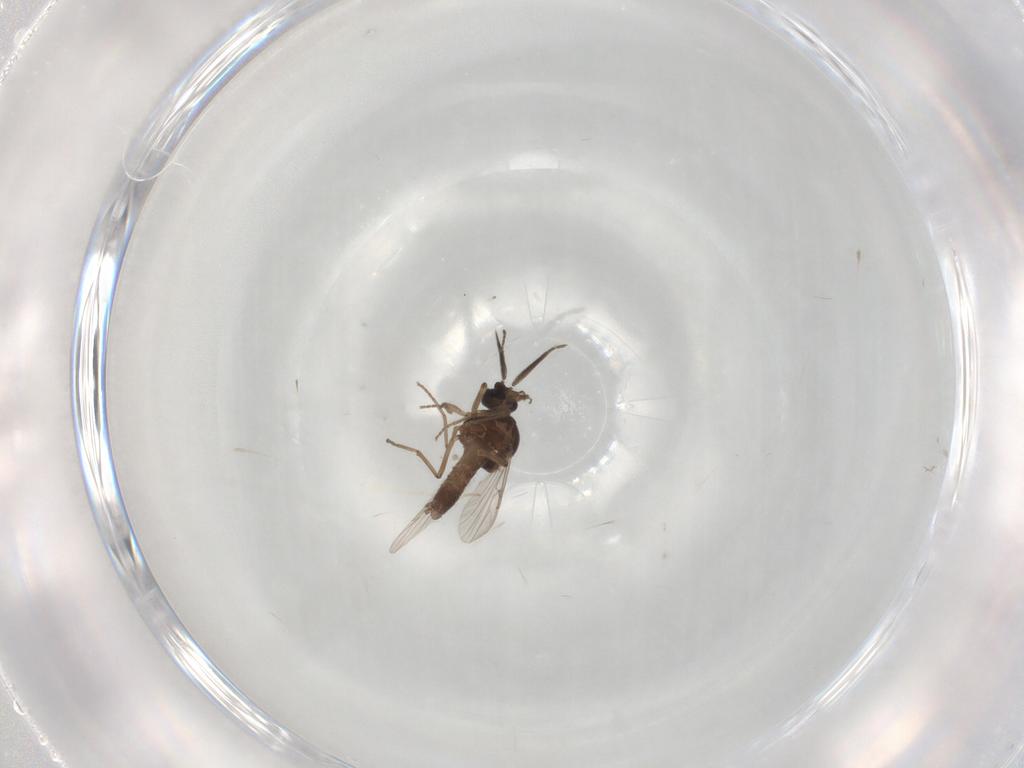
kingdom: Animalia
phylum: Arthropoda
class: Insecta
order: Diptera
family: Ceratopogonidae
